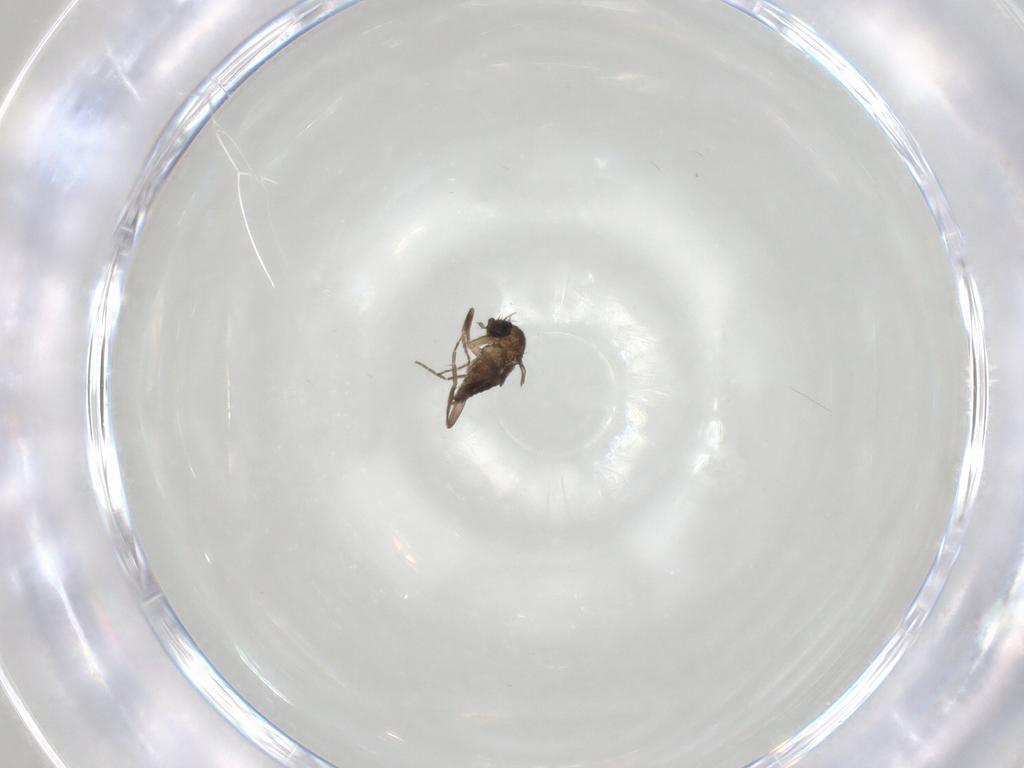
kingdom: Animalia
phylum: Arthropoda
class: Insecta
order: Diptera
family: Phoridae
